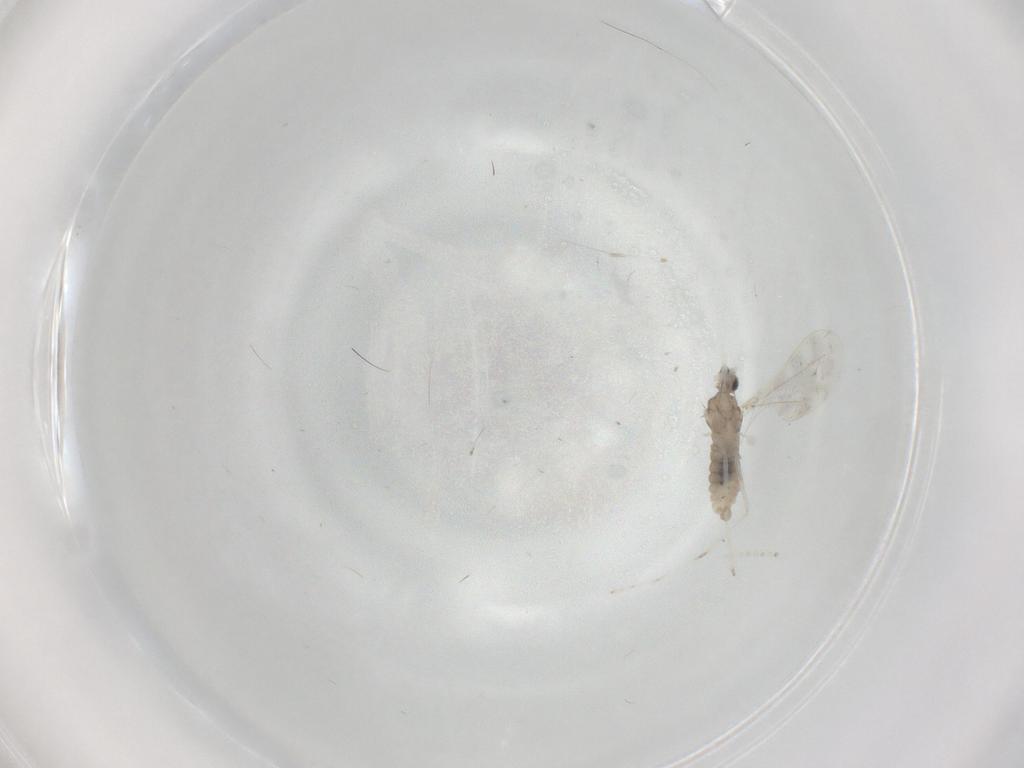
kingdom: Animalia
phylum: Arthropoda
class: Insecta
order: Diptera
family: Cecidomyiidae
